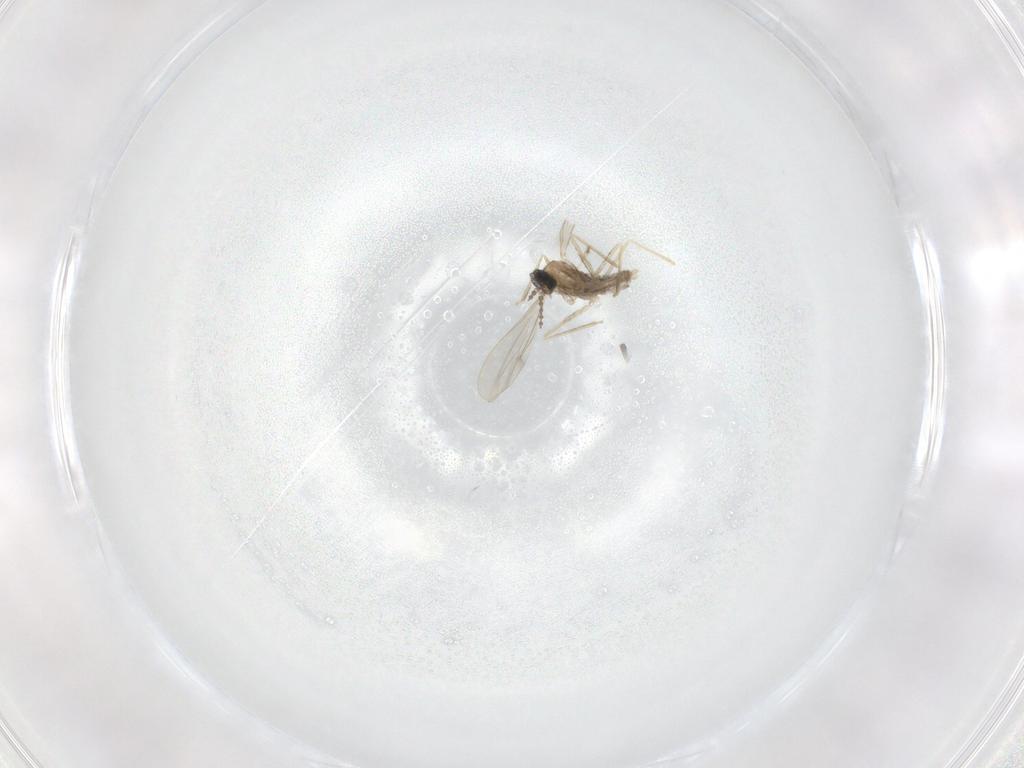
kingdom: Animalia
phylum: Arthropoda
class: Insecta
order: Diptera
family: Cecidomyiidae
